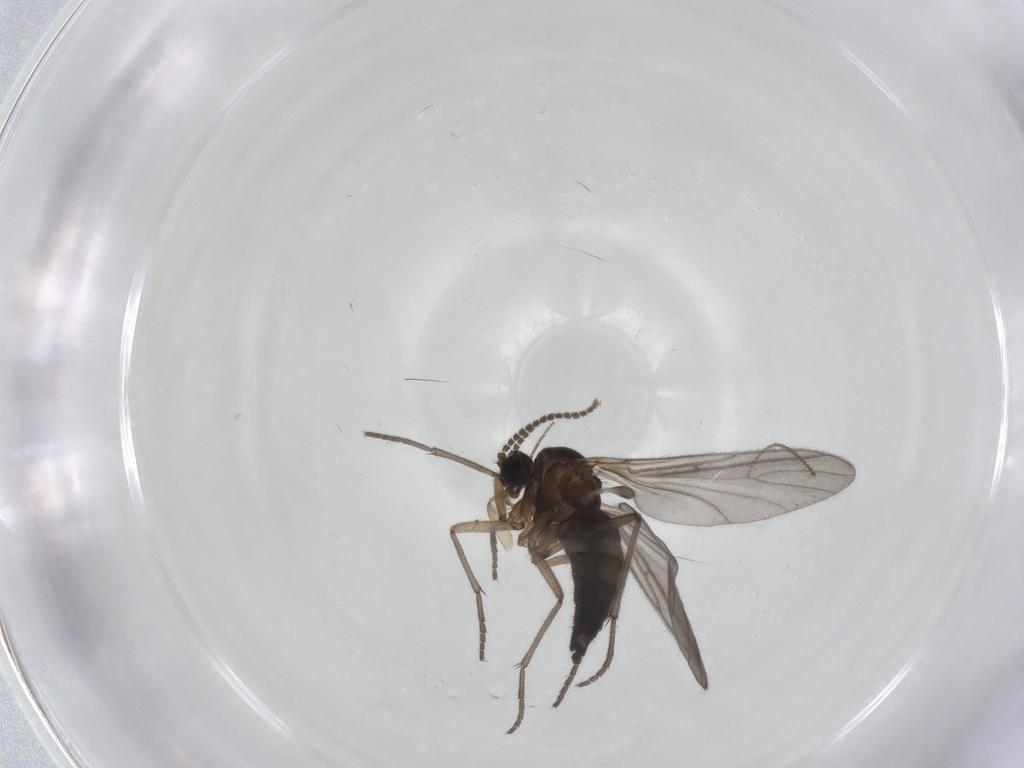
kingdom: Animalia
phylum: Arthropoda
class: Insecta
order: Diptera
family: Sciaridae
